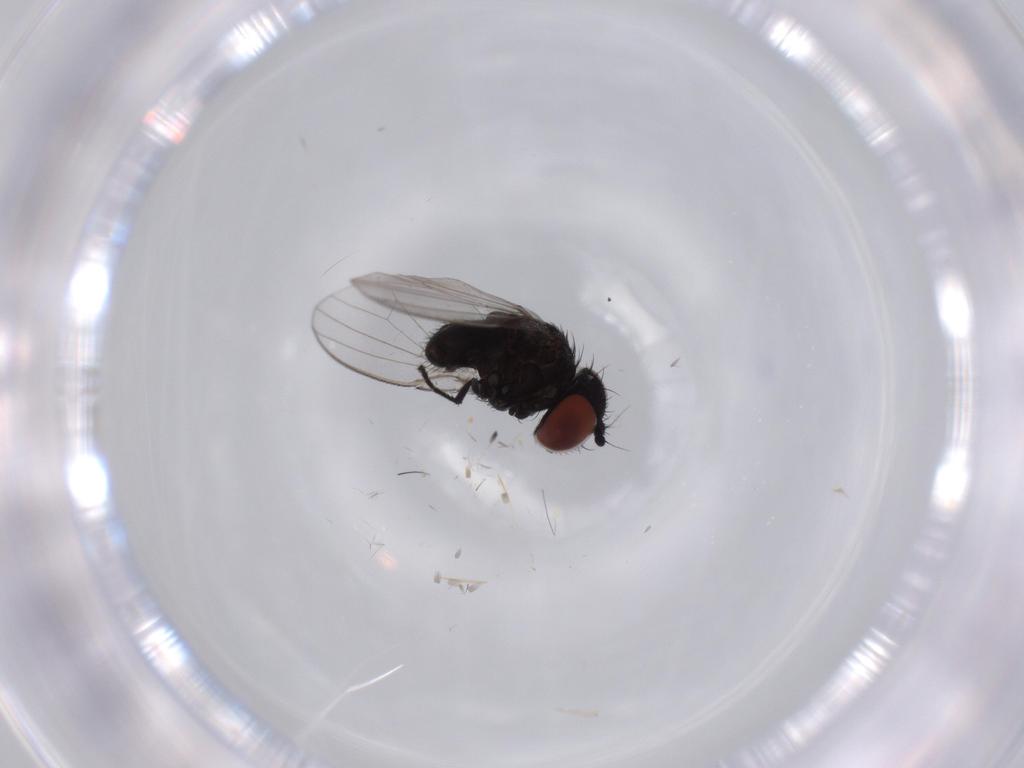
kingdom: Animalia
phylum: Arthropoda
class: Insecta
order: Diptera
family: Milichiidae
